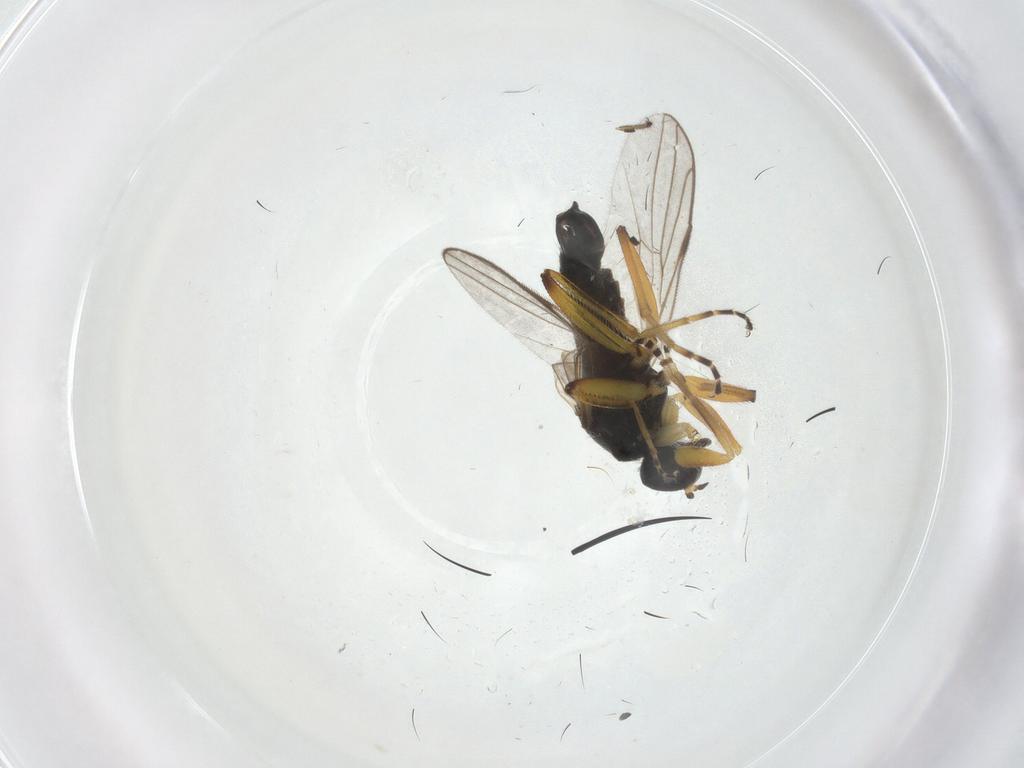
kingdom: Animalia
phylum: Arthropoda
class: Insecta
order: Diptera
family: Hybotidae
